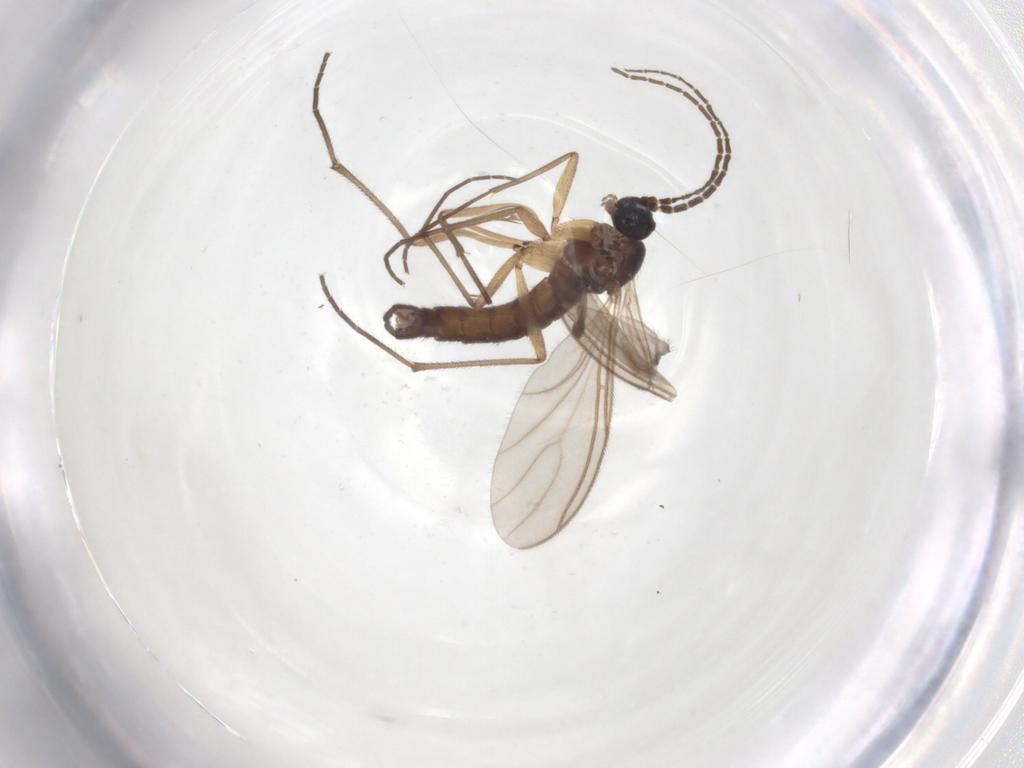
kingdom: Animalia
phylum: Arthropoda
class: Insecta
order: Diptera
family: Sciaridae
